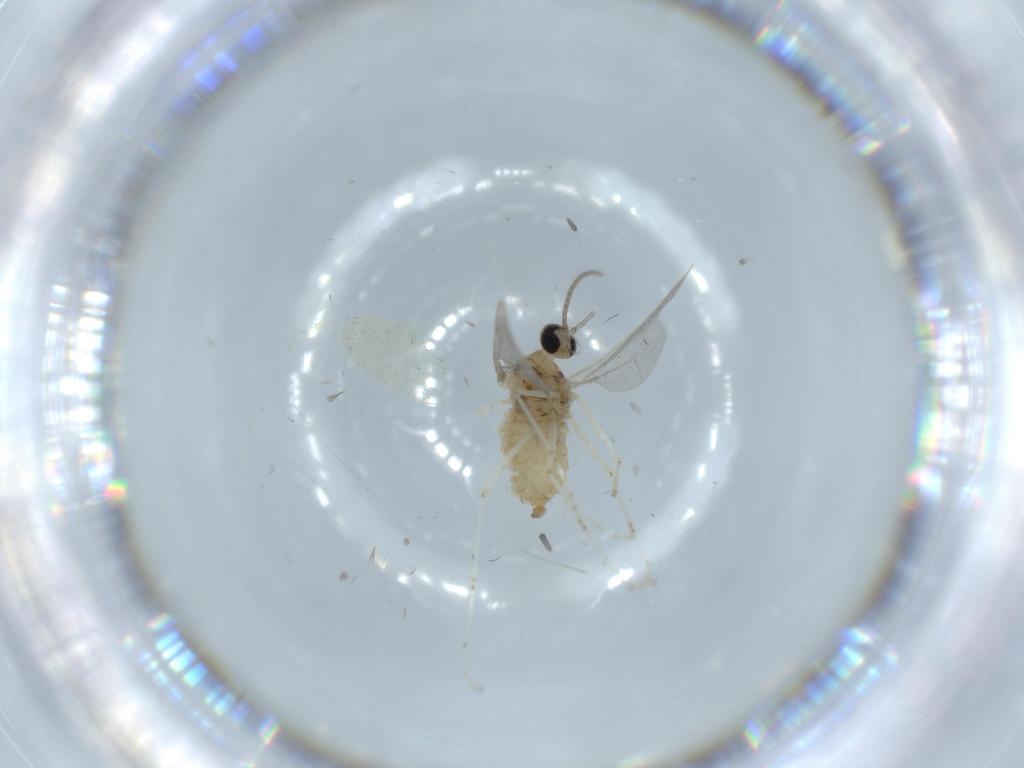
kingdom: Animalia
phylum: Arthropoda
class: Insecta
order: Diptera
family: Cecidomyiidae
